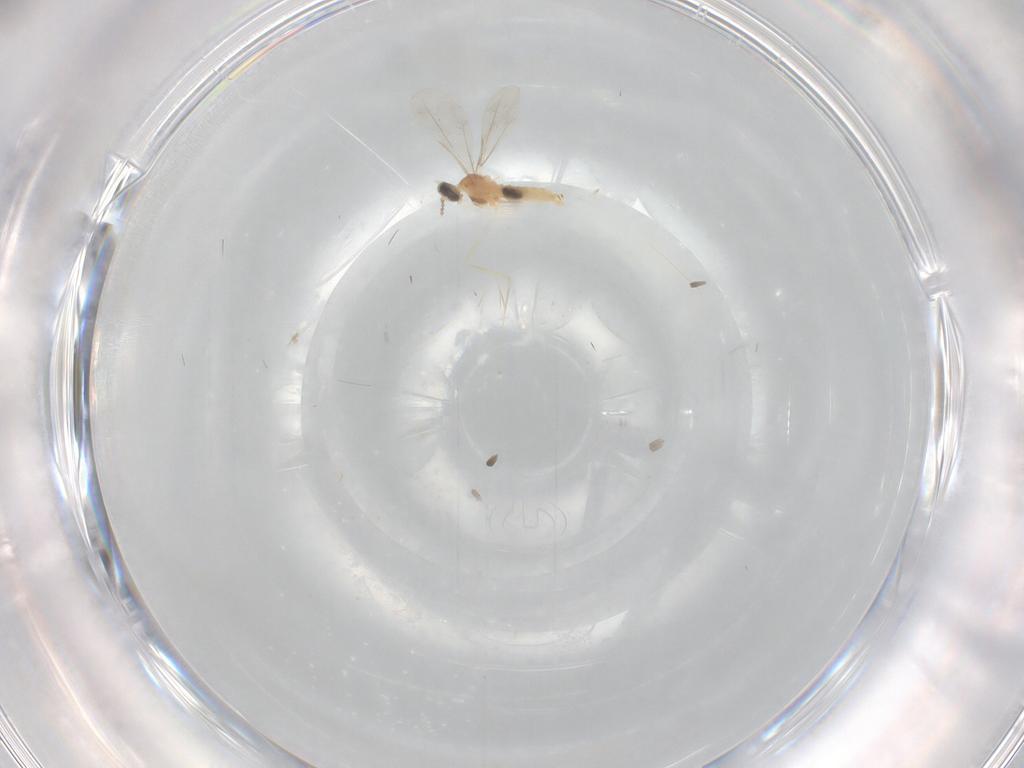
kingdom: Animalia
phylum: Arthropoda
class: Insecta
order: Diptera
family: Cecidomyiidae
